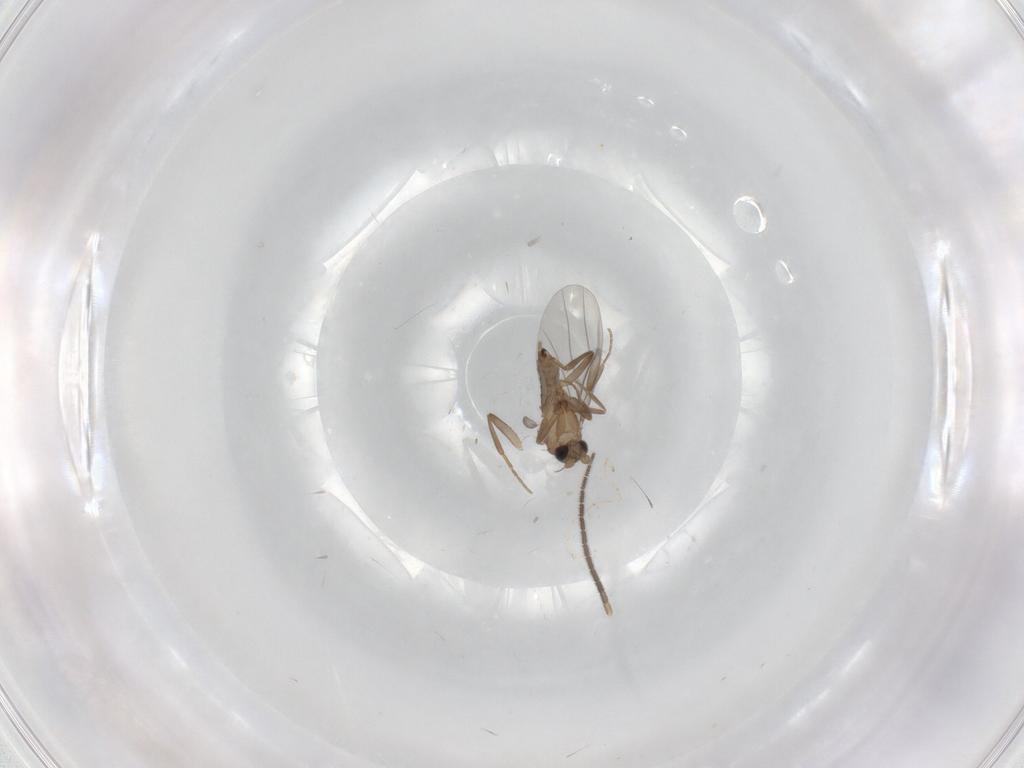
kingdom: Animalia
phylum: Arthropoda
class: Insecta
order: Diptera
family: Sciaridae
